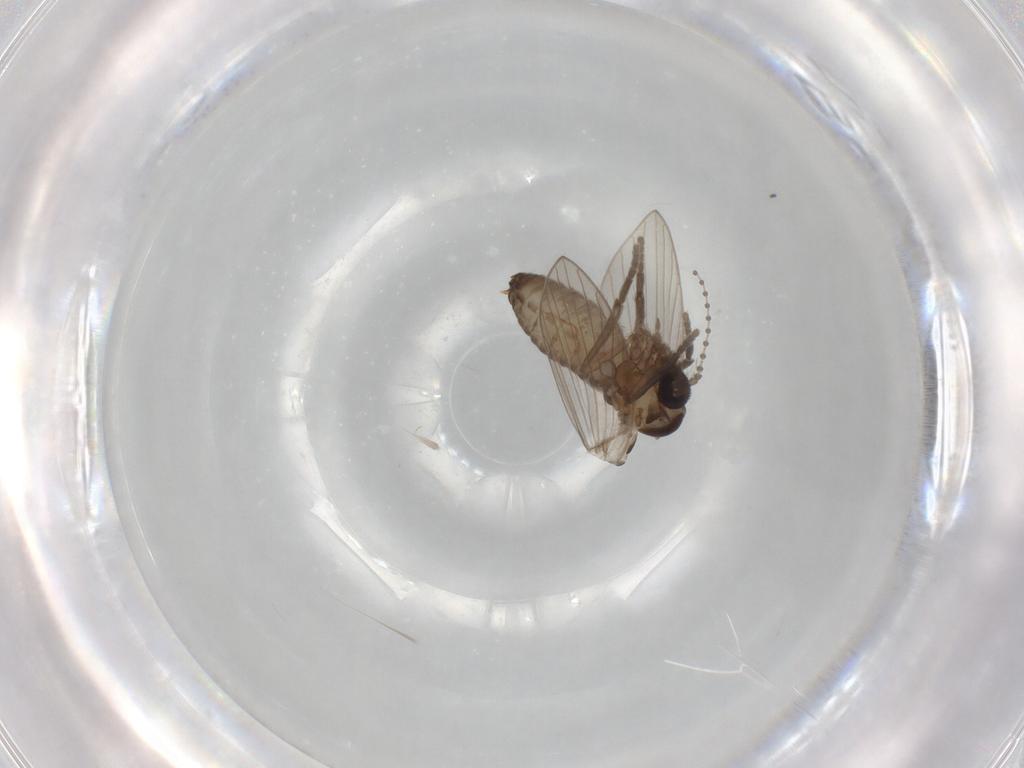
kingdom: Animalia
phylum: Arthropoda
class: Insecta
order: Diptera
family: Psychodidae
